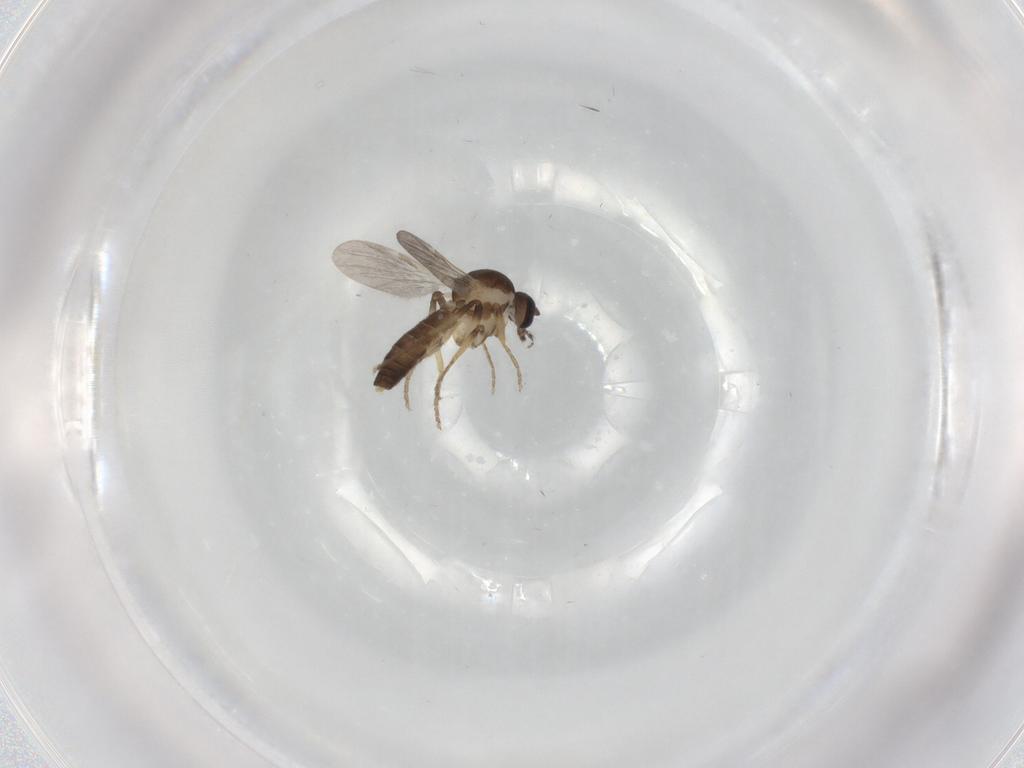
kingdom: Animalia
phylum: Arthropoda
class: Insecta
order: Diptera
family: Ceratopogonidae
